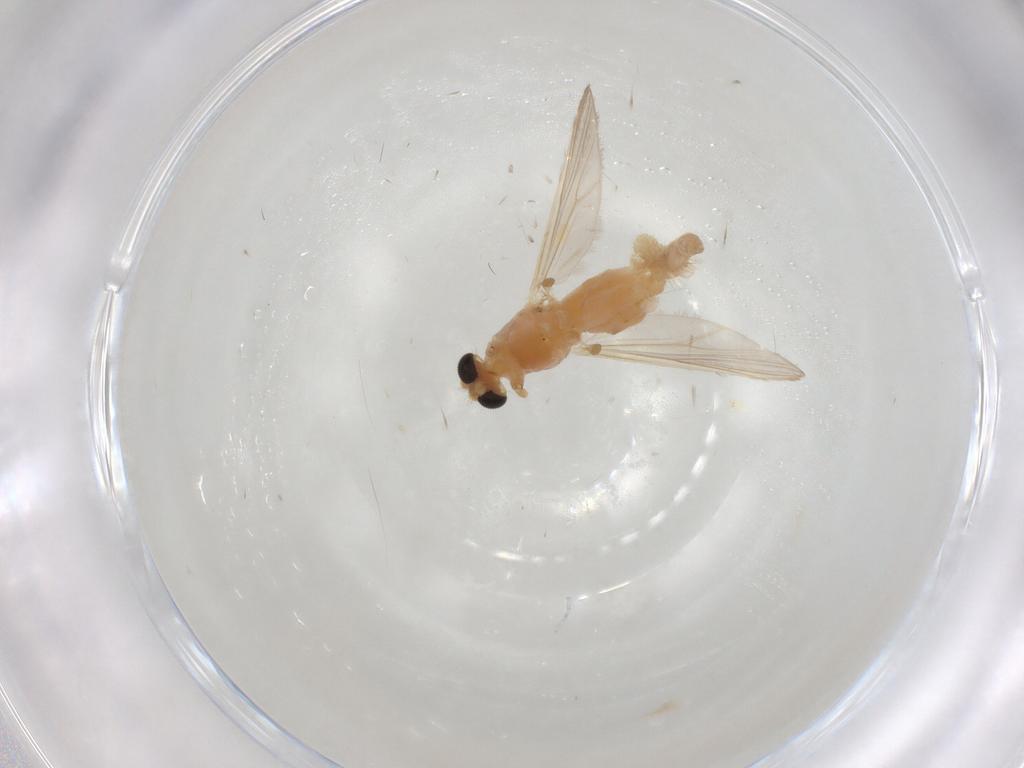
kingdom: Animalia
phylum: Arthropoda
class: Insecta
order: Diptera
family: Chironomidae
